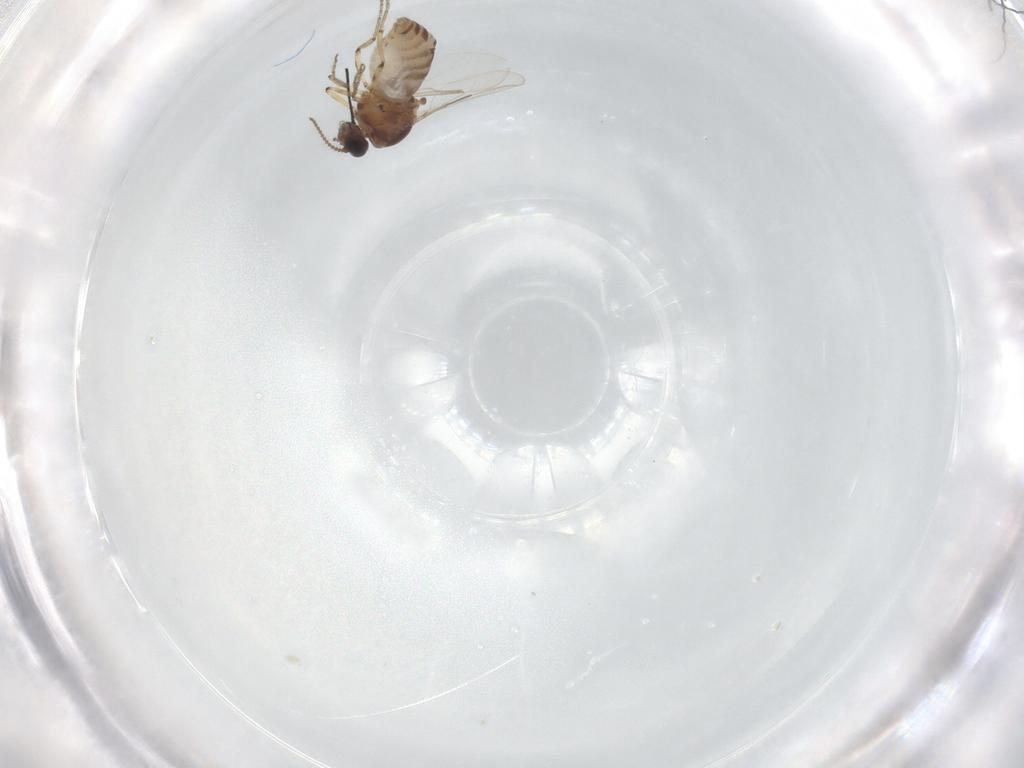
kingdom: Animalia
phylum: Arthropoda
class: Insecta
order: Diptera
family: Ceratopogonidae
